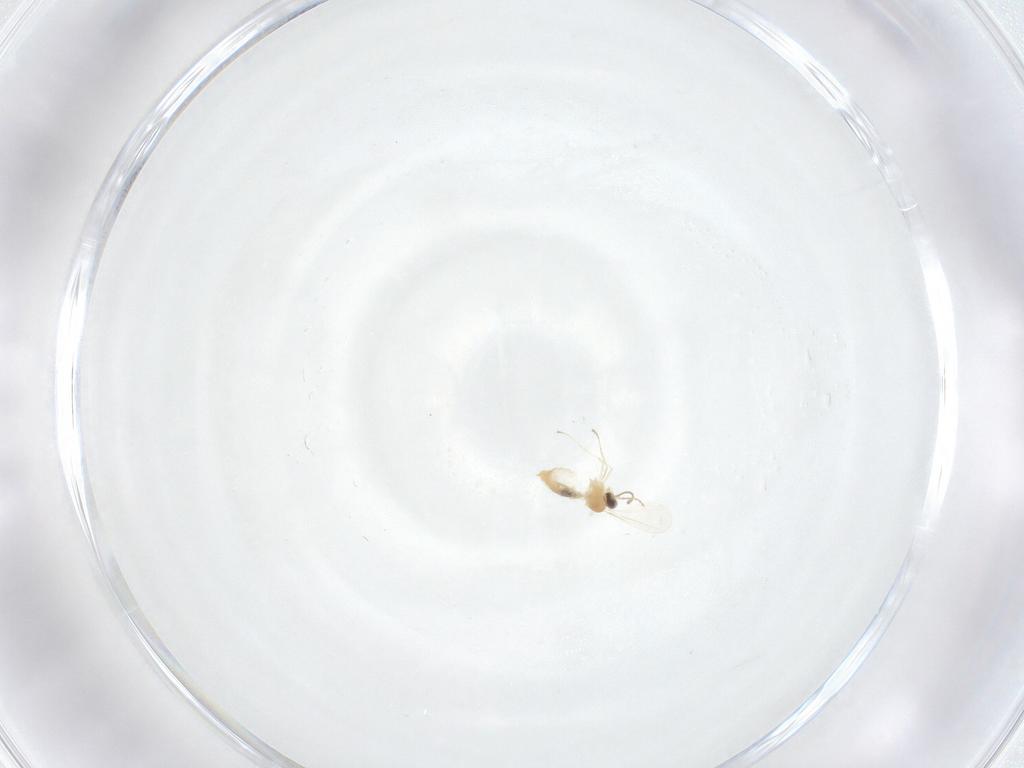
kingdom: Animalia
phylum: Arthropoda
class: Insecta
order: Diptera
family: Cecidomyiidae
